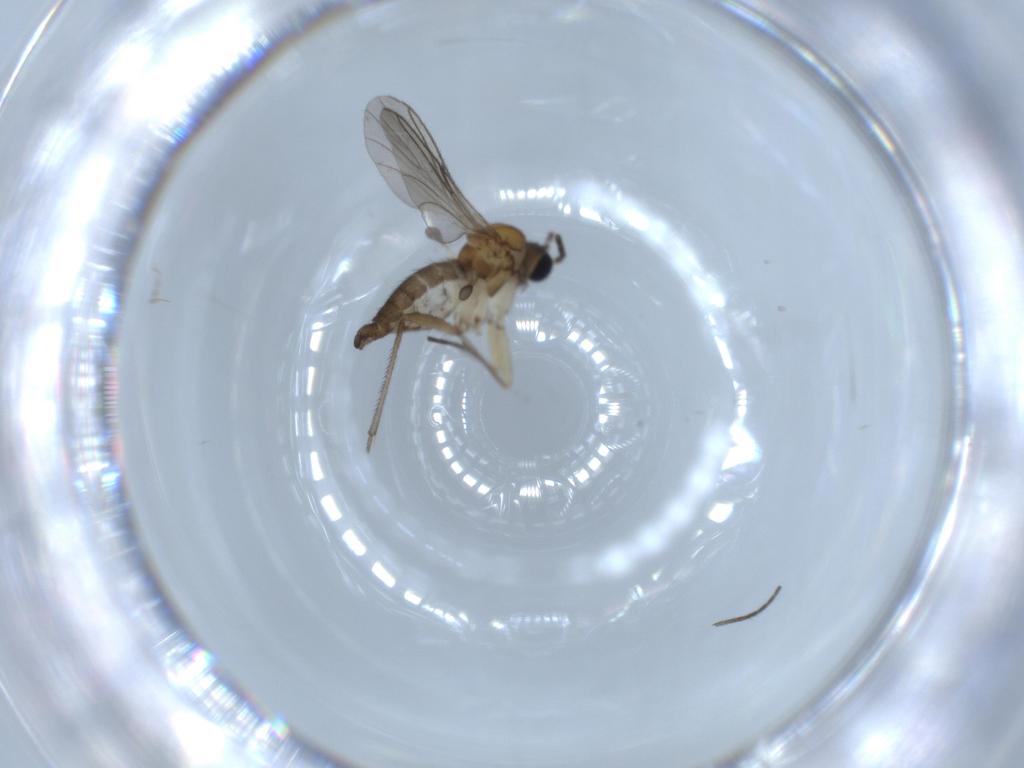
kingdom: Animalia
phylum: Arthropoda
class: Insecta
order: Diptera
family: Sciaridae
